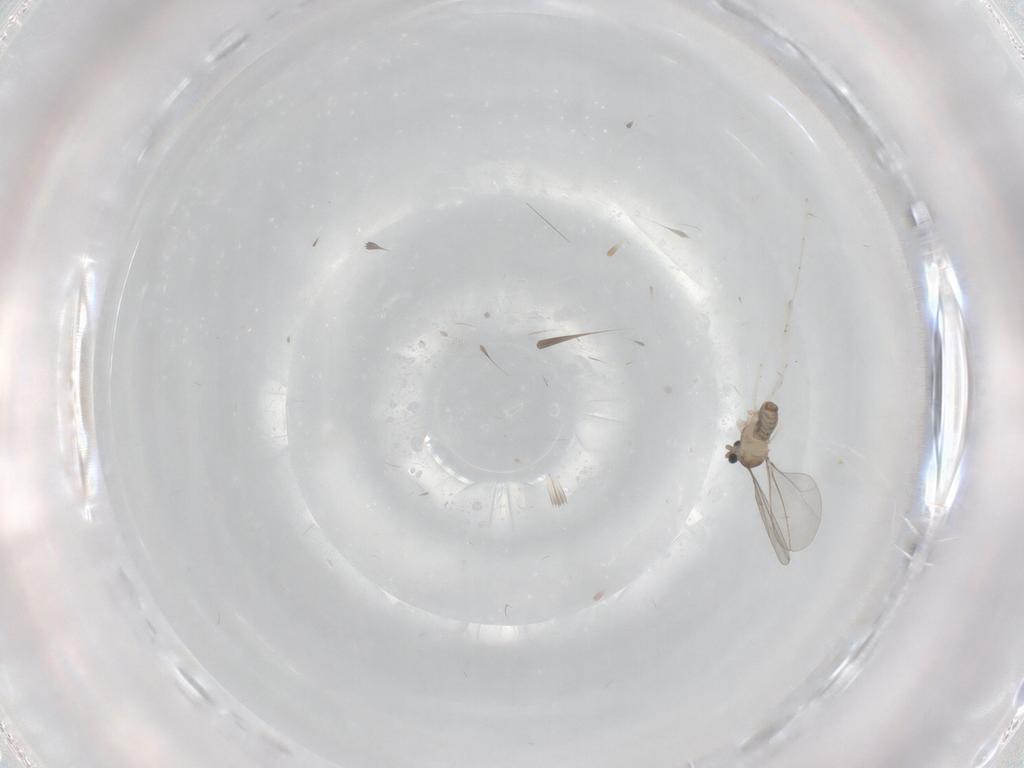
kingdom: Animalia
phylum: Arthropoda
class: Insecta
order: Diptera
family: Cecidomyiidae
